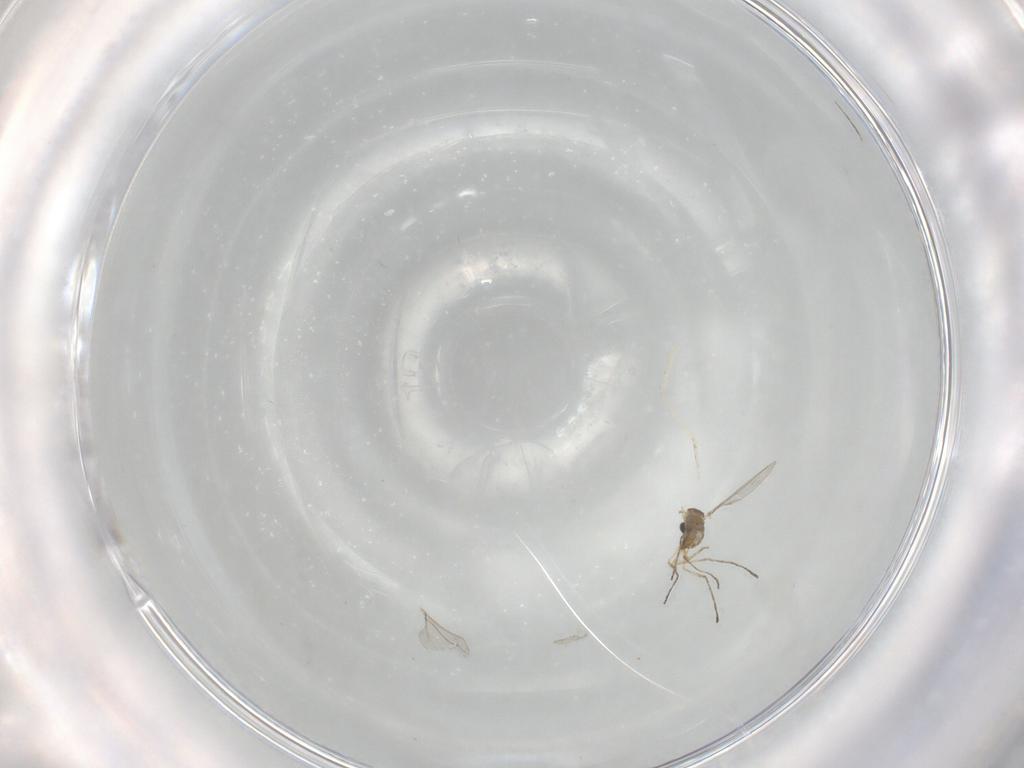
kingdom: Animalia
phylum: Arthropoda
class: Insecta
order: Diptera
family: Cecidomyiidae
